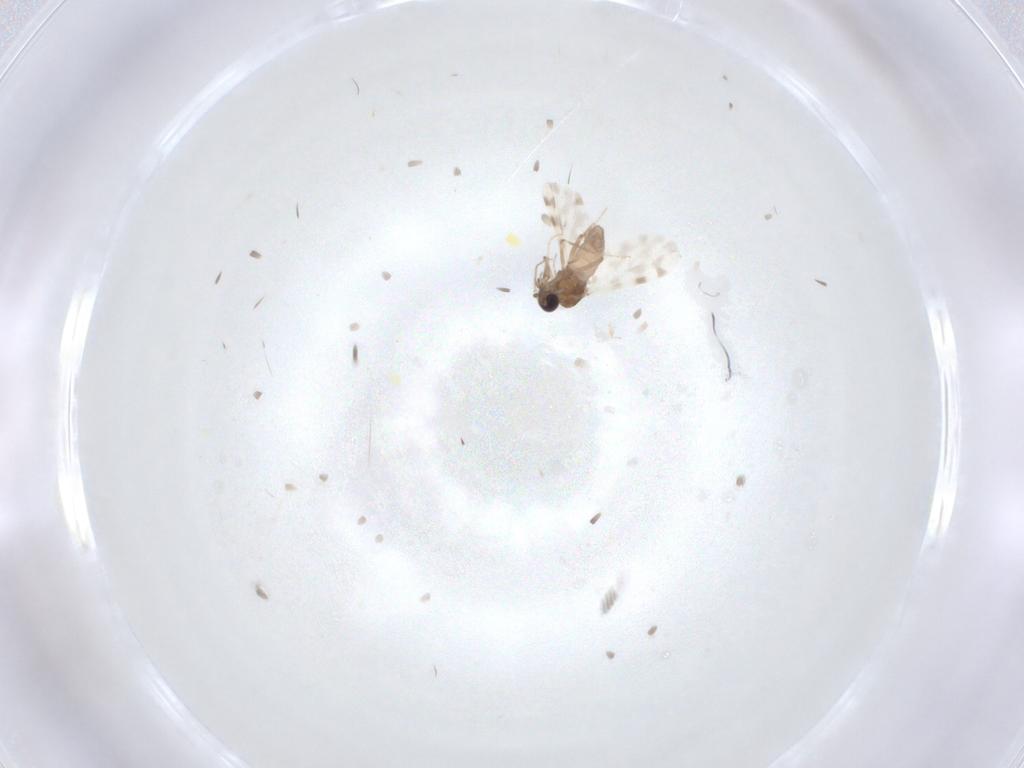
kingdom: Animalia
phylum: Arthropoda
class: Insecta
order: Diptera
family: Ceratopogonidae
